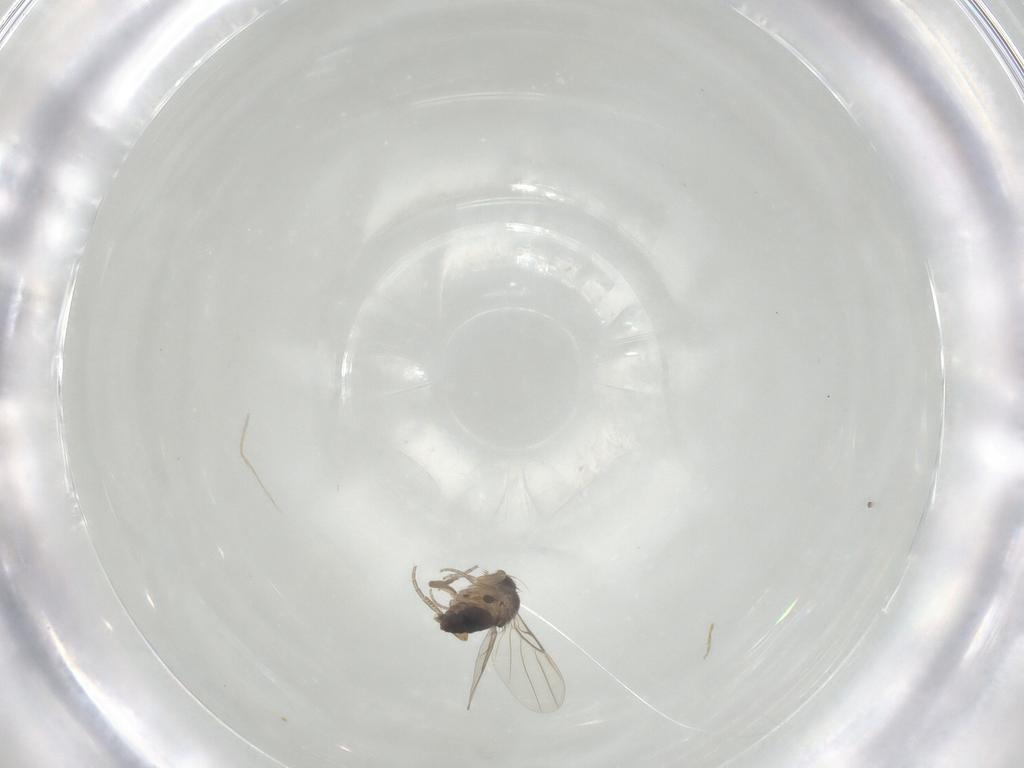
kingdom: Animalia
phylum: Arthropoda
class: Insecta
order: Diptera
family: Phoridae
